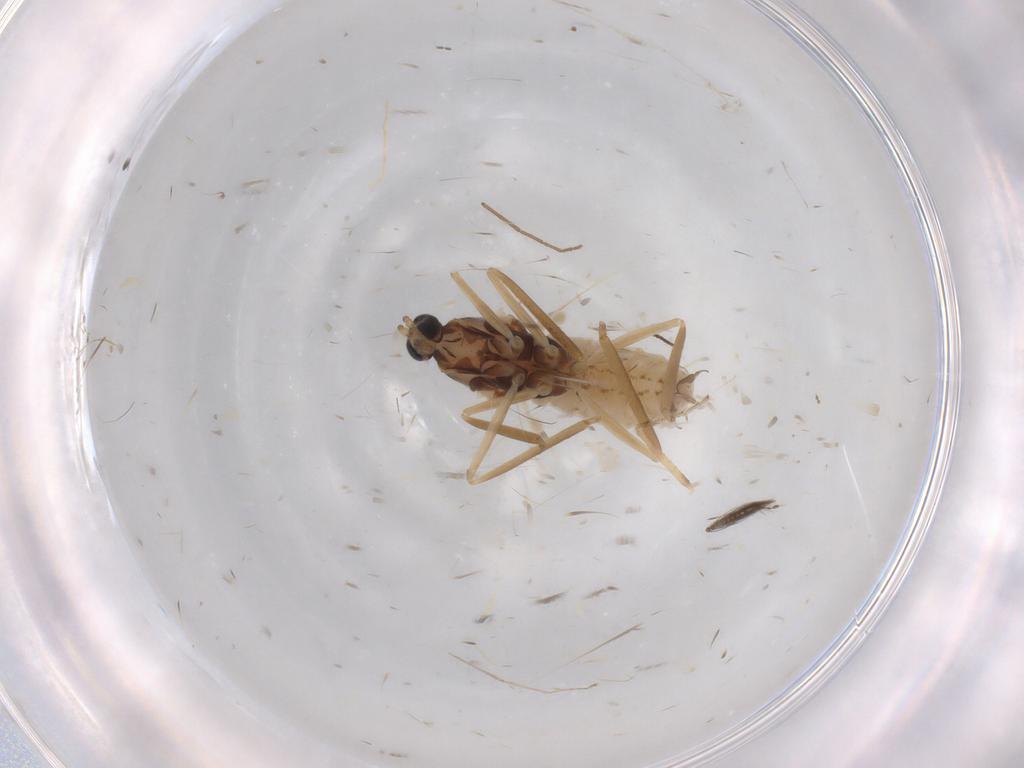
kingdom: Animalia
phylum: Arthropoda
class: Insecta
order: Diptera
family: Cecidomyiidae
